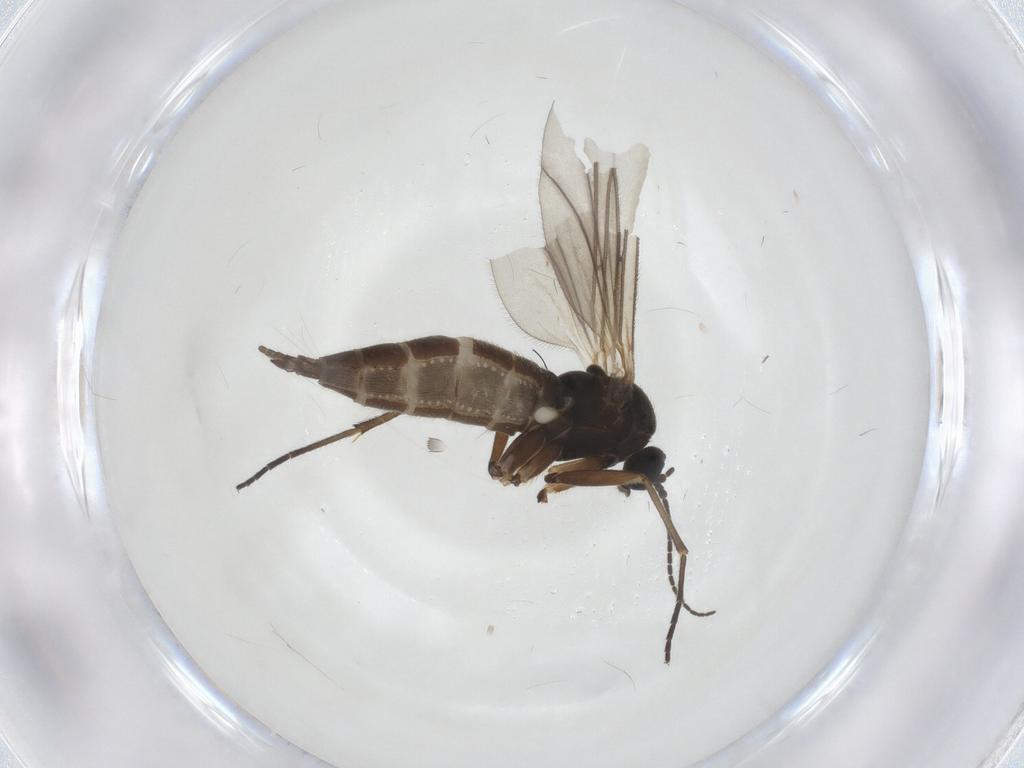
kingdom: Animalia
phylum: Arthropoda
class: Insecta
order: Diptera
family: Sciaridae
